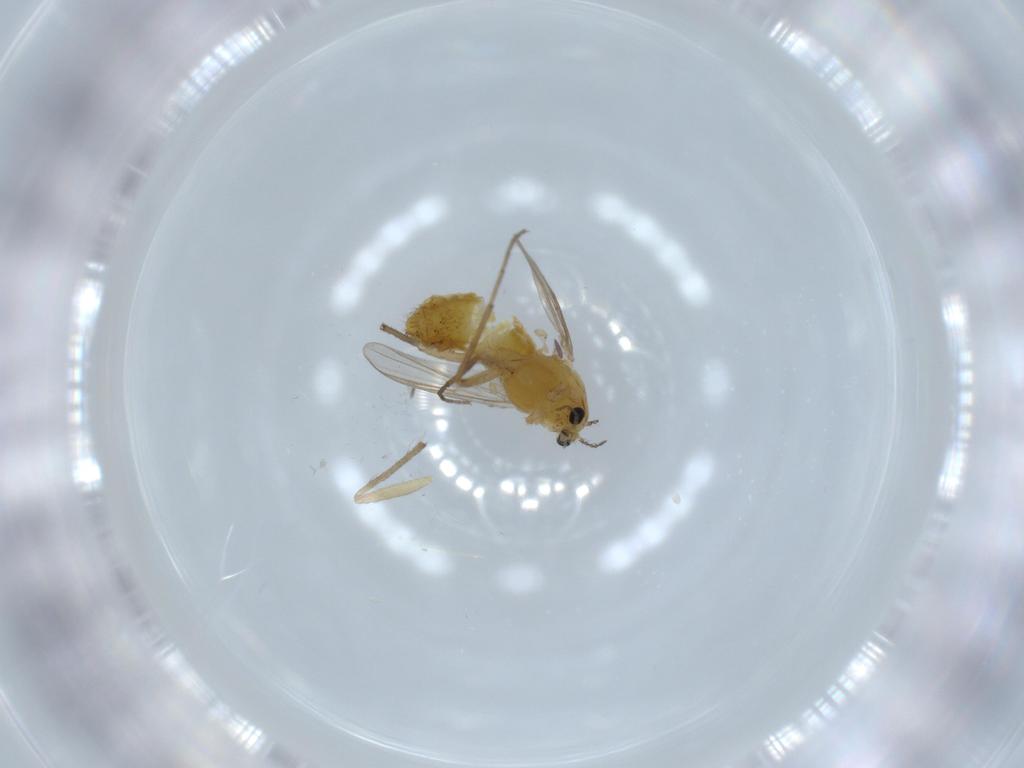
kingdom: Animalia
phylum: Arthropoda
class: Insecta
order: Diptera
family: Chironomidae
